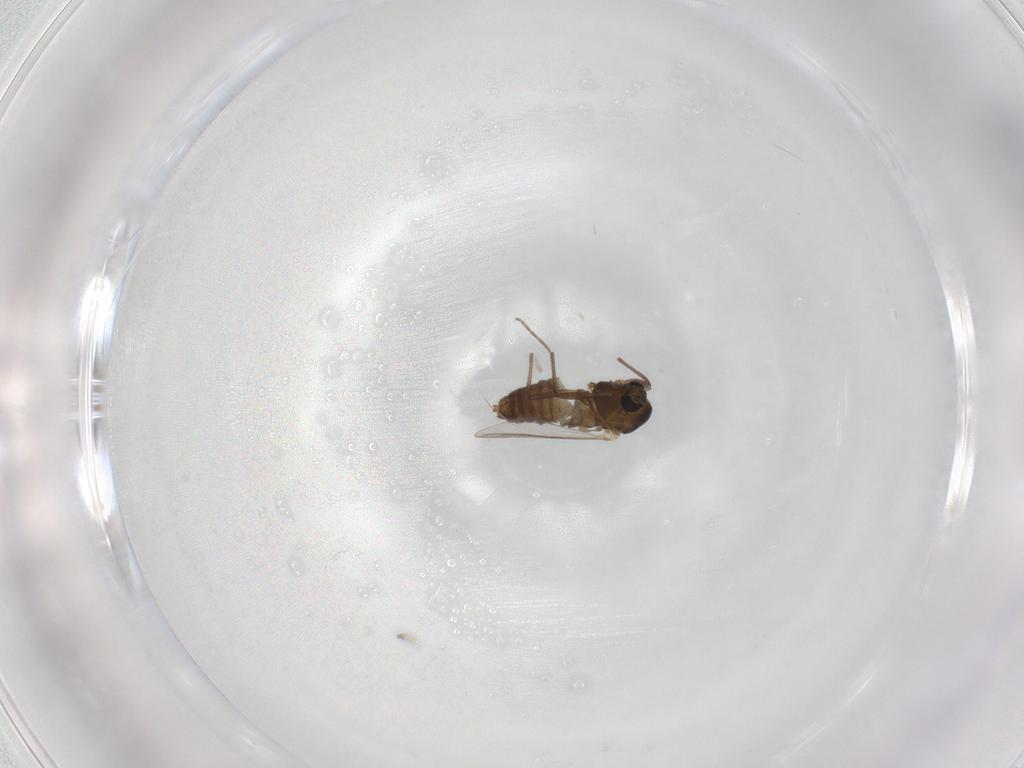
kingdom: Animalia
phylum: Arthropoda
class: Insecta
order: Diptera
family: Chironomidae
